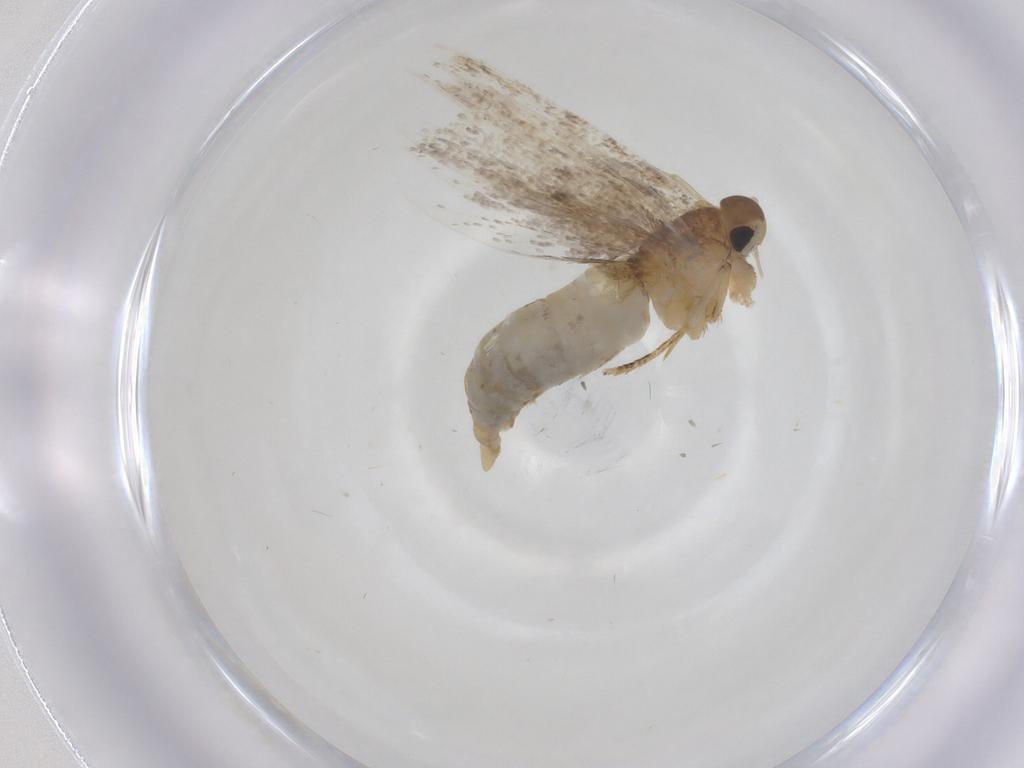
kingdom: Animalia
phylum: Arthropoda
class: Insecta
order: Lepidoptera
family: Oecophoridae
